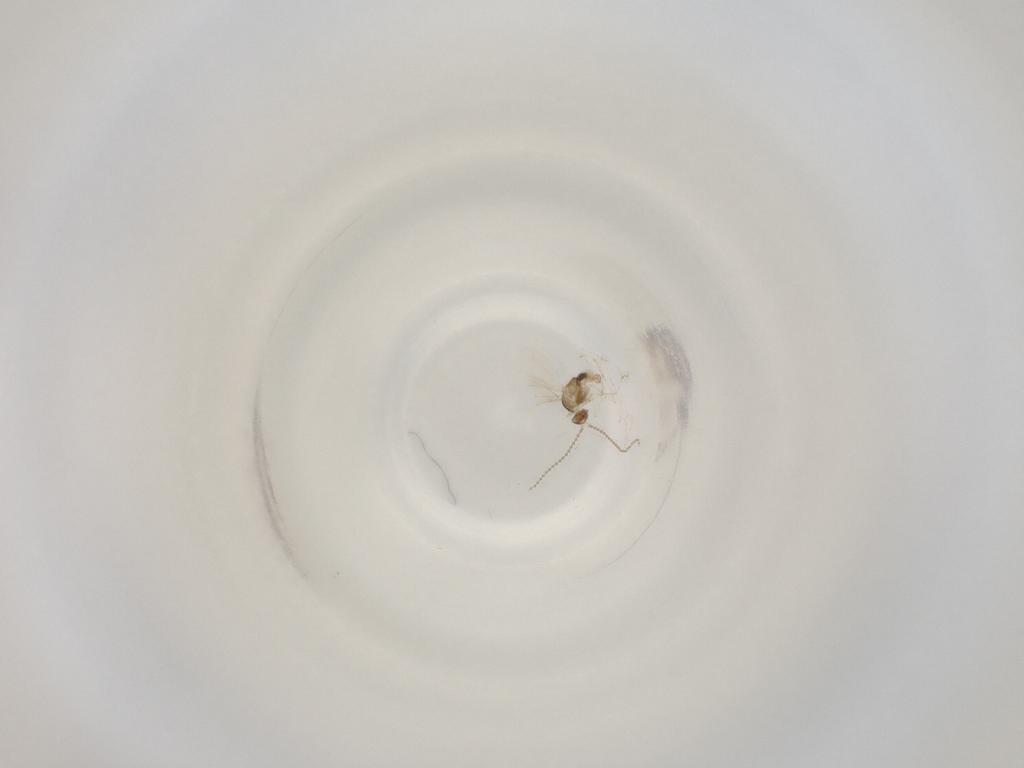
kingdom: Animalia
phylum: Arthropoda
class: Insecta
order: Diptera
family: Cecidomyiidae
